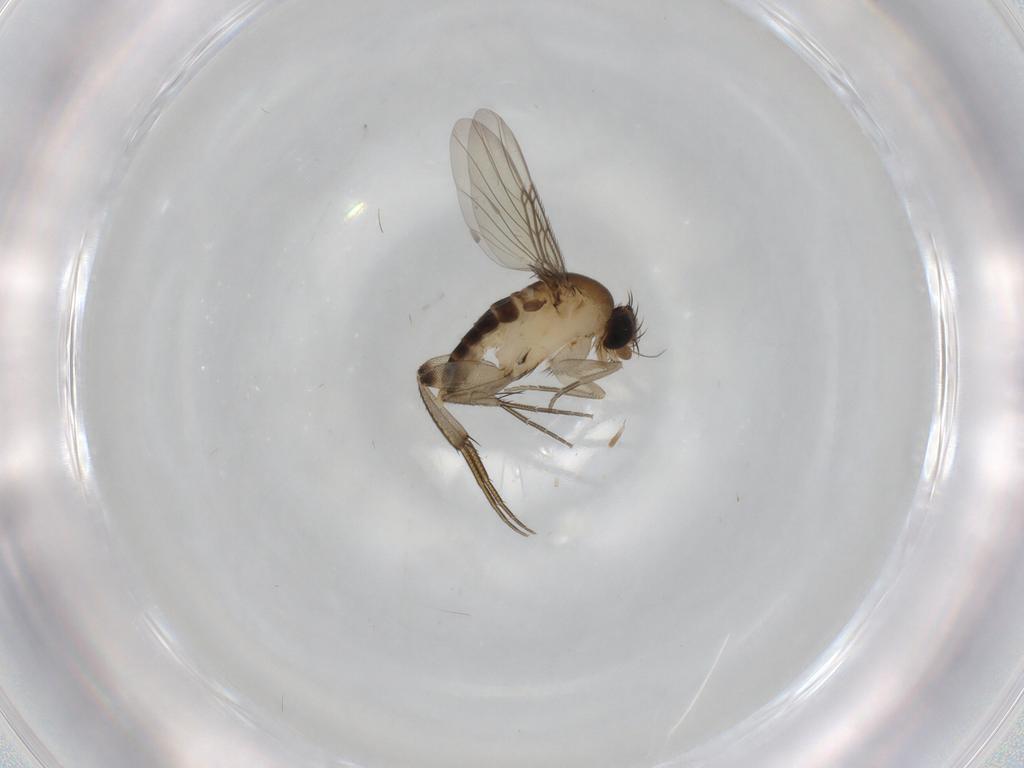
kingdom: Animalia
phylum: Arthropoda
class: Insecta
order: Diptera
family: Phoridae
